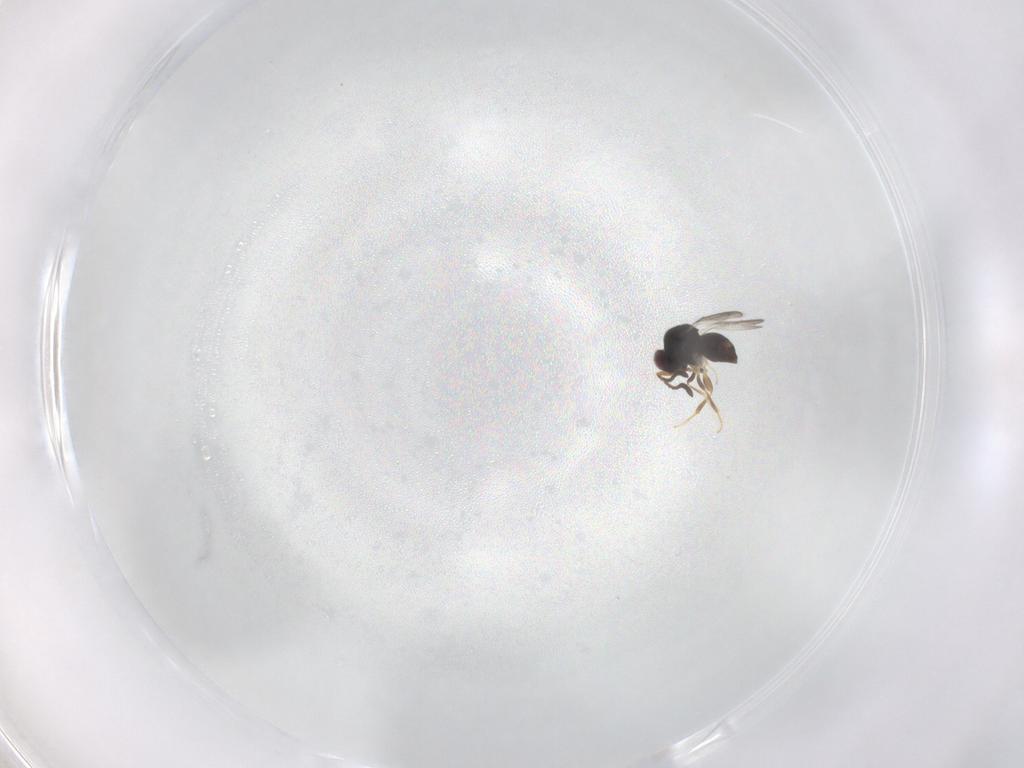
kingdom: Animalia
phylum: Arthropoda
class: Insecta
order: Hymenoptera
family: Ceraphronidae
